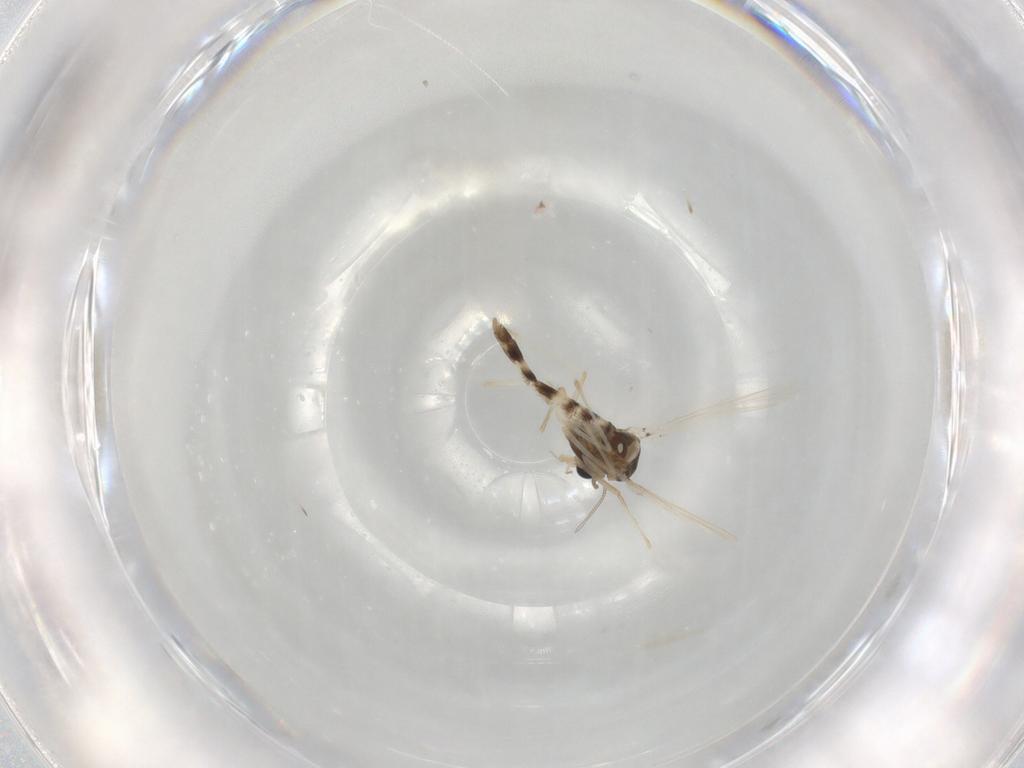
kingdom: Animalia
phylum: Arthropoda
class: Insecta
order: Diptera
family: Chironomidae
